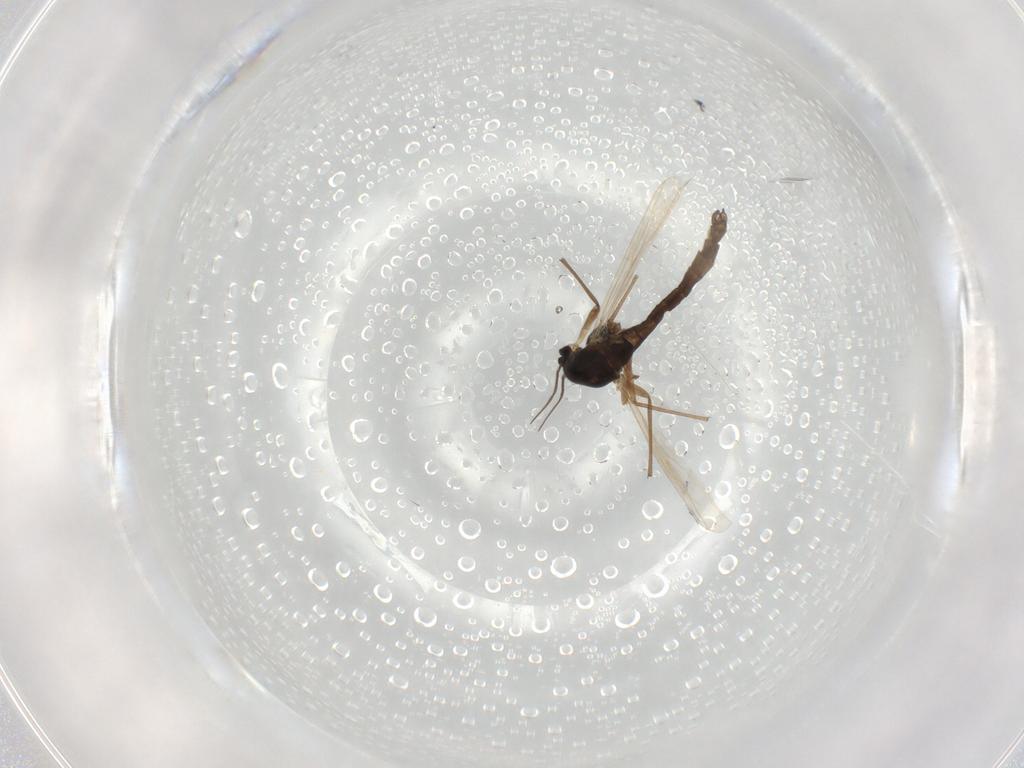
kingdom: Animalia
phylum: Arthropoda
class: Insecta
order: Diptera
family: Chironomidae
